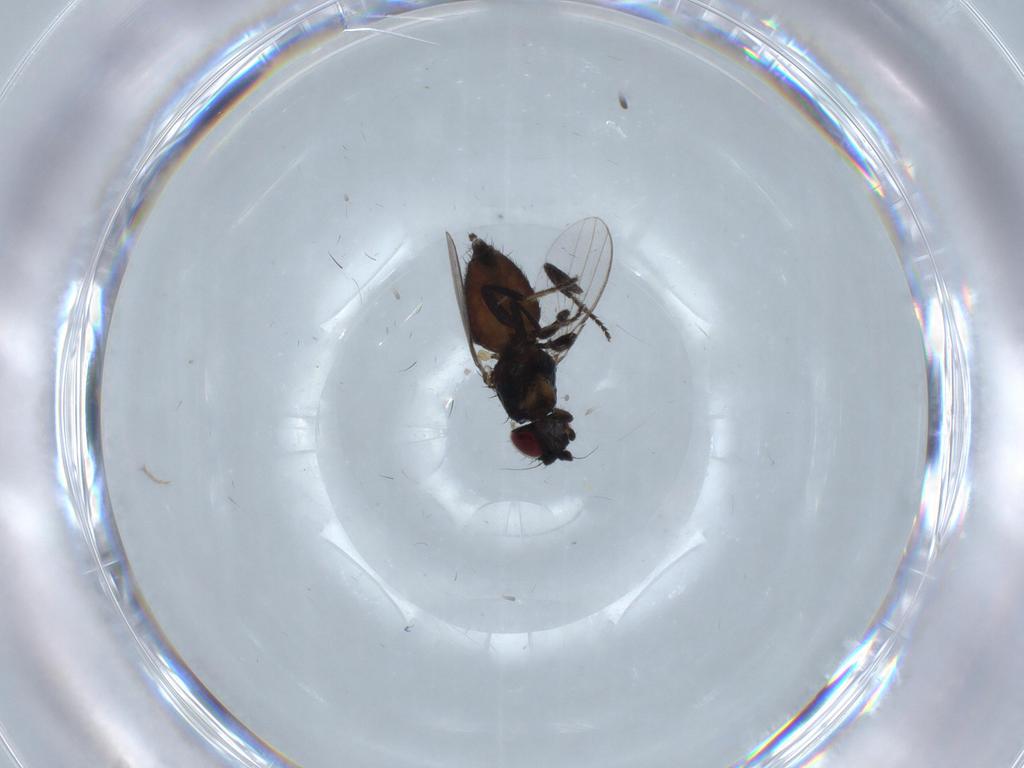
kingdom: Animalia
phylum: Arthropoda
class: Insecta
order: Diptera
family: Milichiidae
